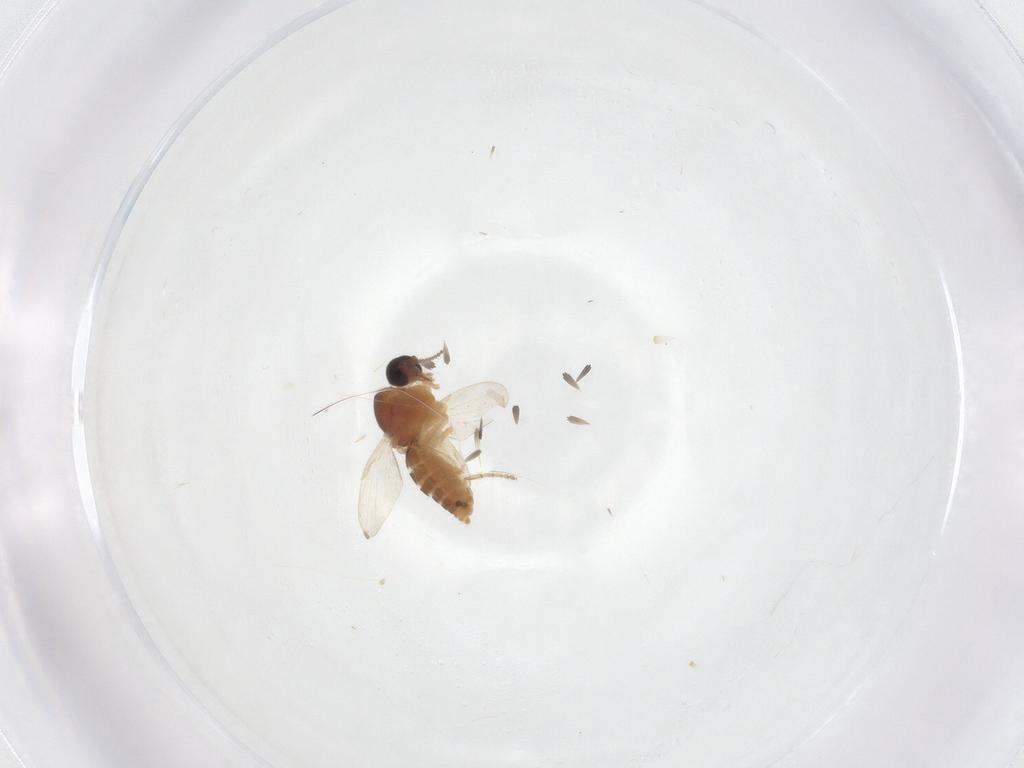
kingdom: Animalia
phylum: Arthropoda
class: Insecta
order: Diptera
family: Ceratopogonidae
